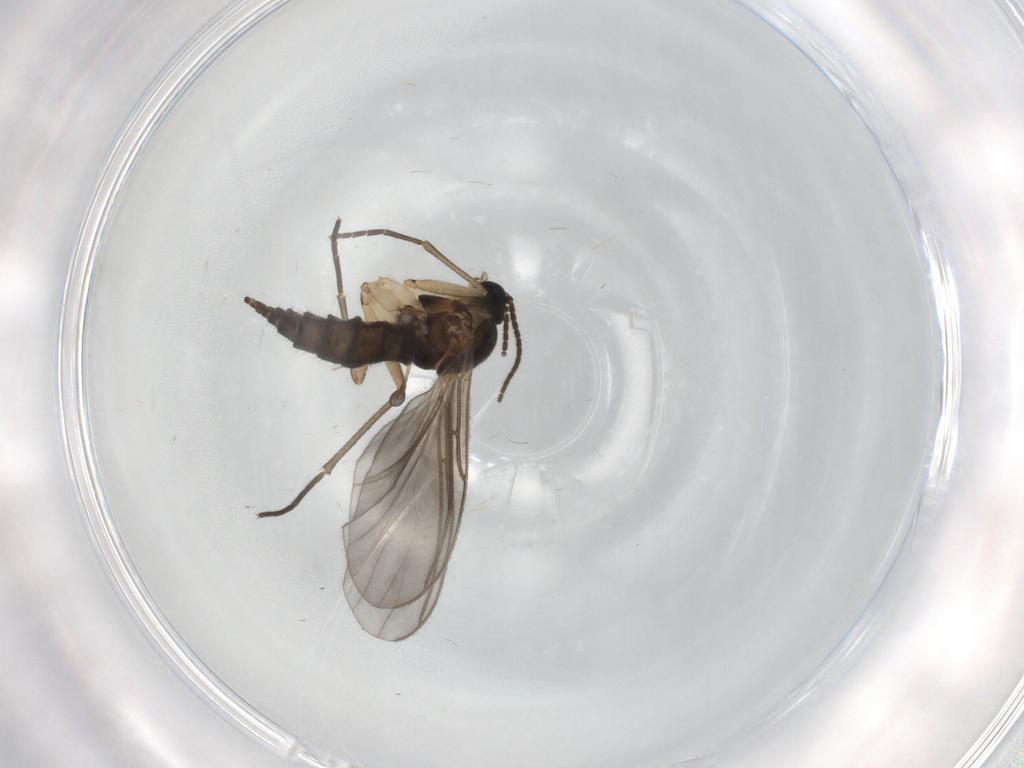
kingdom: Animalia
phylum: Arthropoda
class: Insecta
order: Diptera
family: Sciaridae
